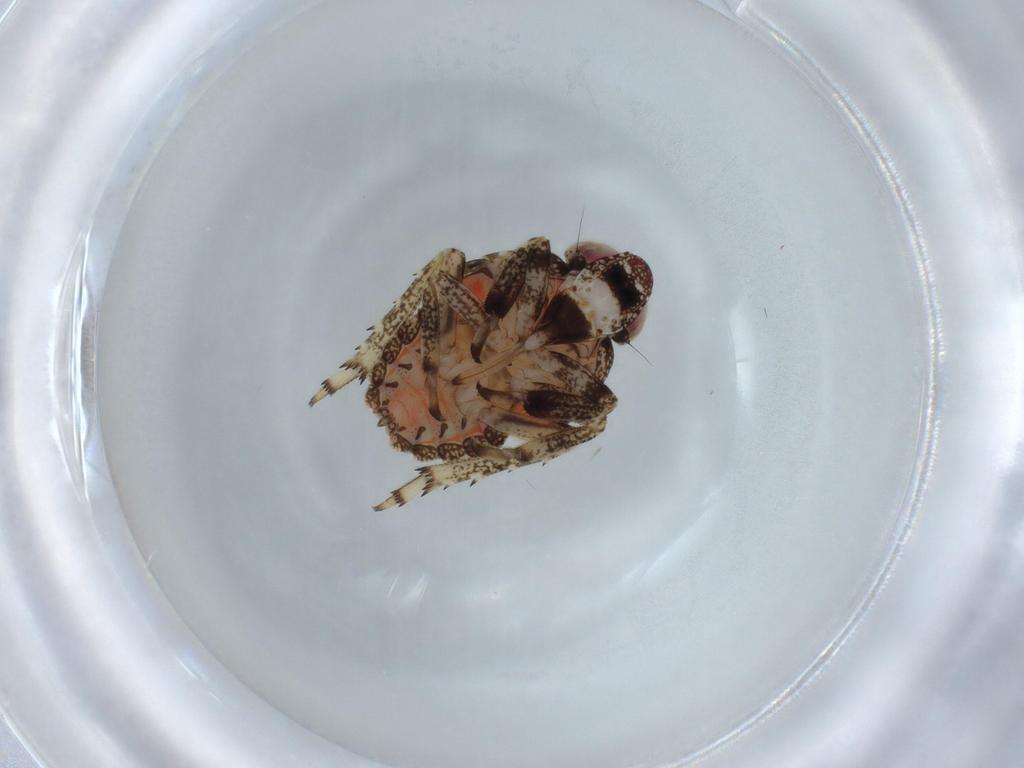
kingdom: Animalia
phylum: Arthropoda
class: Insecta
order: Hemiptera
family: Issidae
